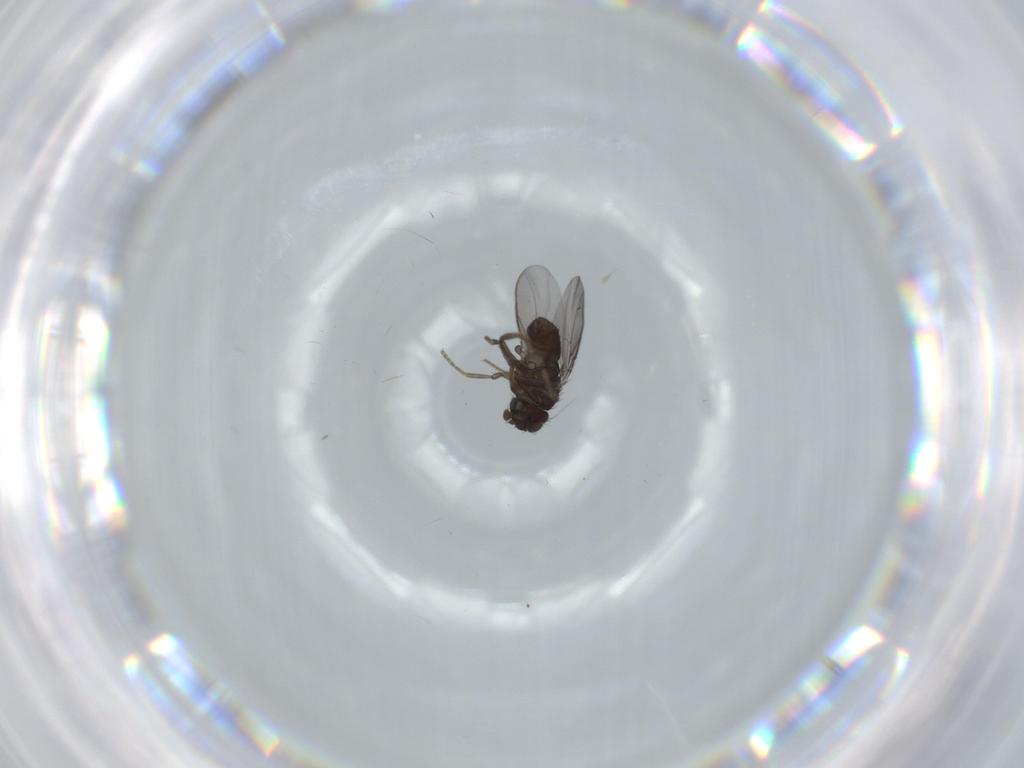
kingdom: Animalia
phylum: Arthropoda
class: Insecta
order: Diptera
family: Sphaeroceridae
